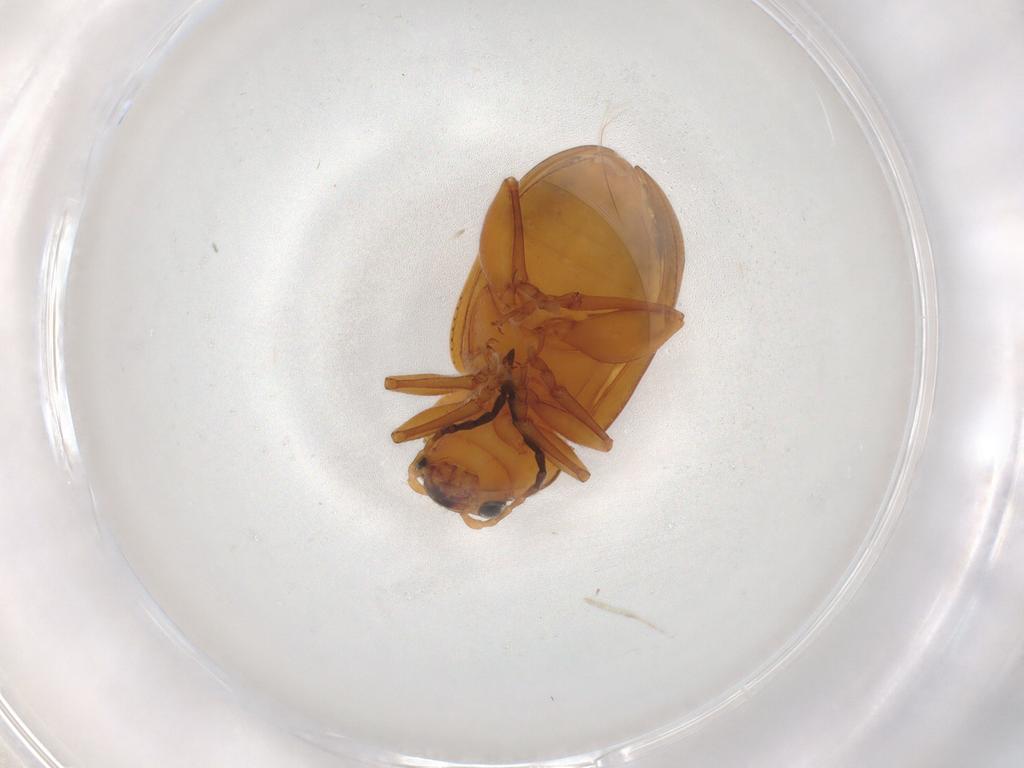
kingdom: Animalia
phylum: Arthropoda
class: Insecta
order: Coleoptera
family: Chrysomelidae
